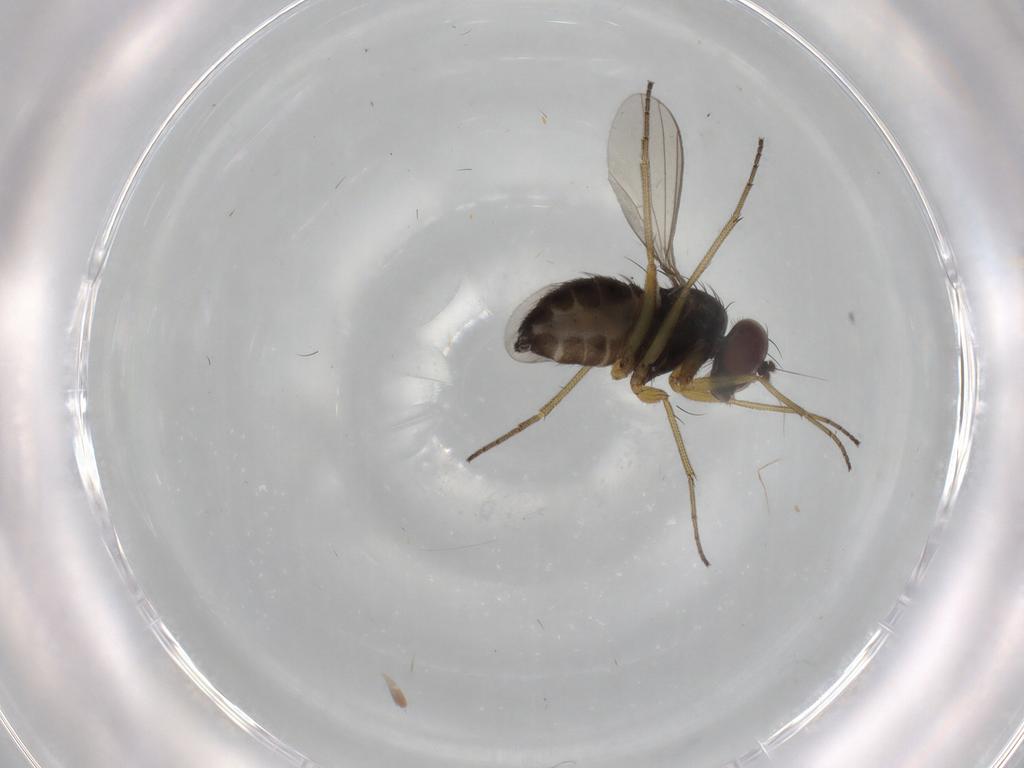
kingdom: Animalia
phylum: Arthropoda
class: Insecta
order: Diptera
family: Dolichopodidae
